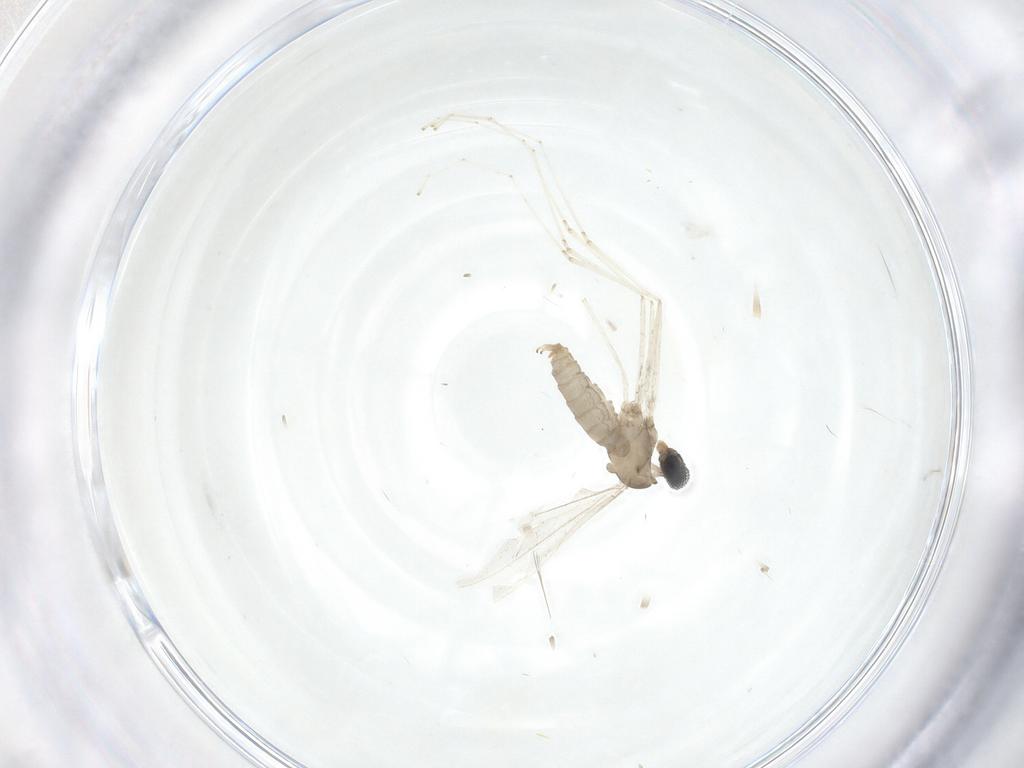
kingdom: Animalia
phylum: Arthropoda
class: Insecta
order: Diptera
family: Cecidomyiidae
